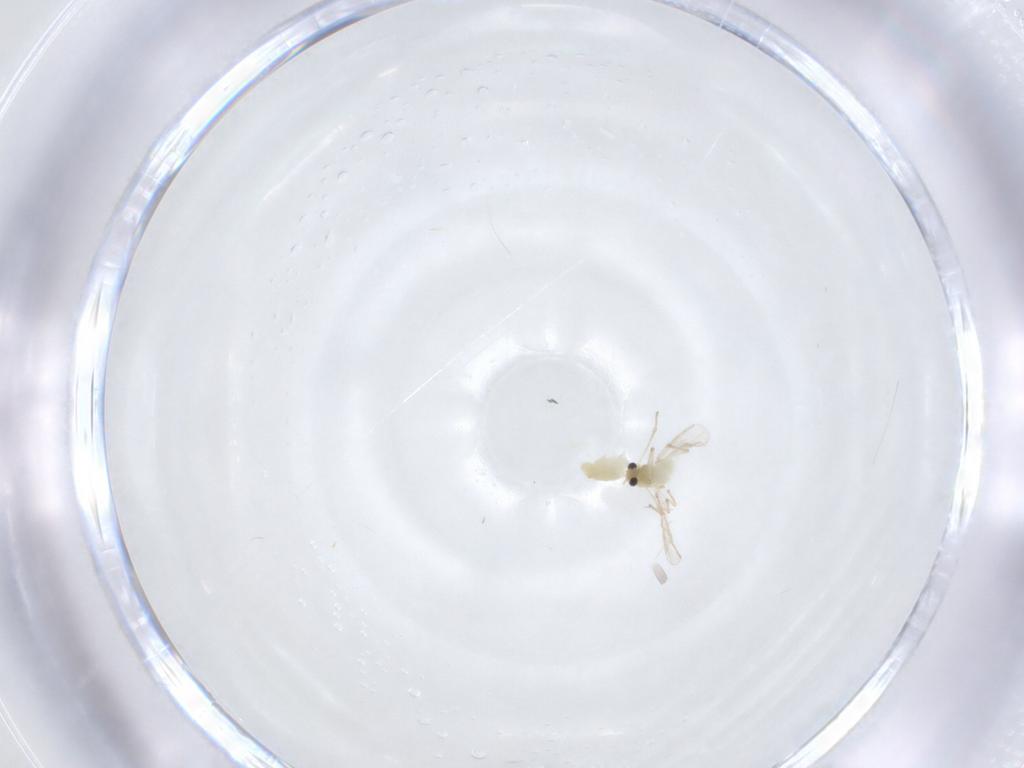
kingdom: Animalia
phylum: Arthropoda
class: Insecta
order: Diptera
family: Chironomidae
